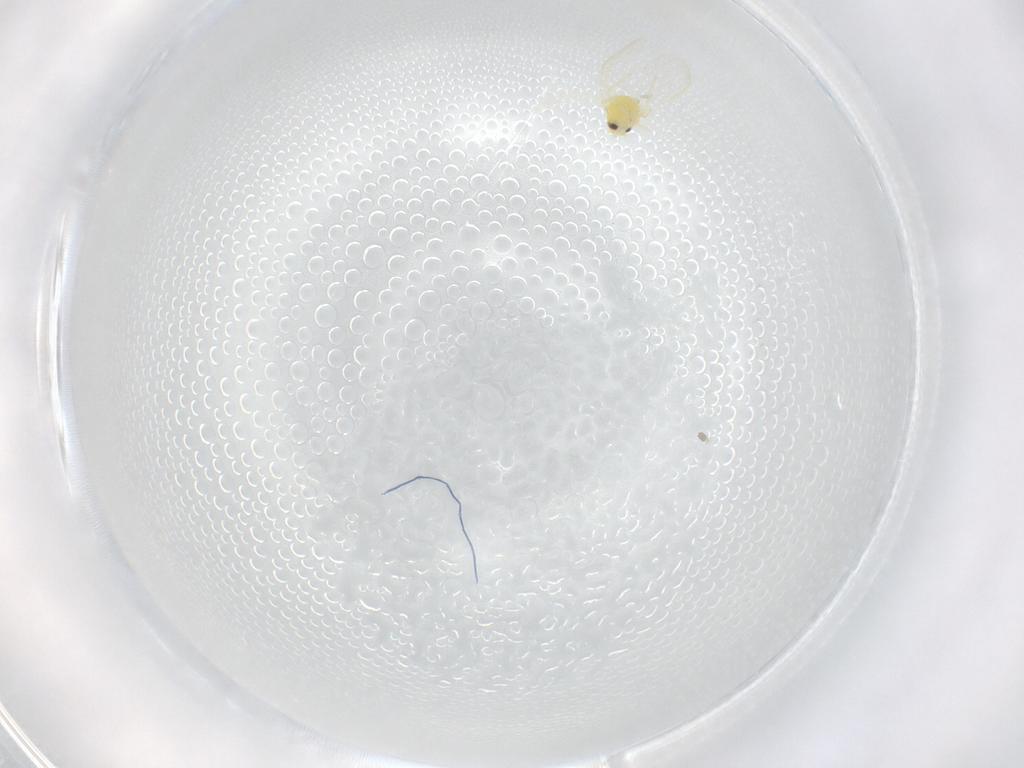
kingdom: Animalia
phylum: Arthropoda
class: Insecta
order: Hemiptera
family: Aleyrodidae
